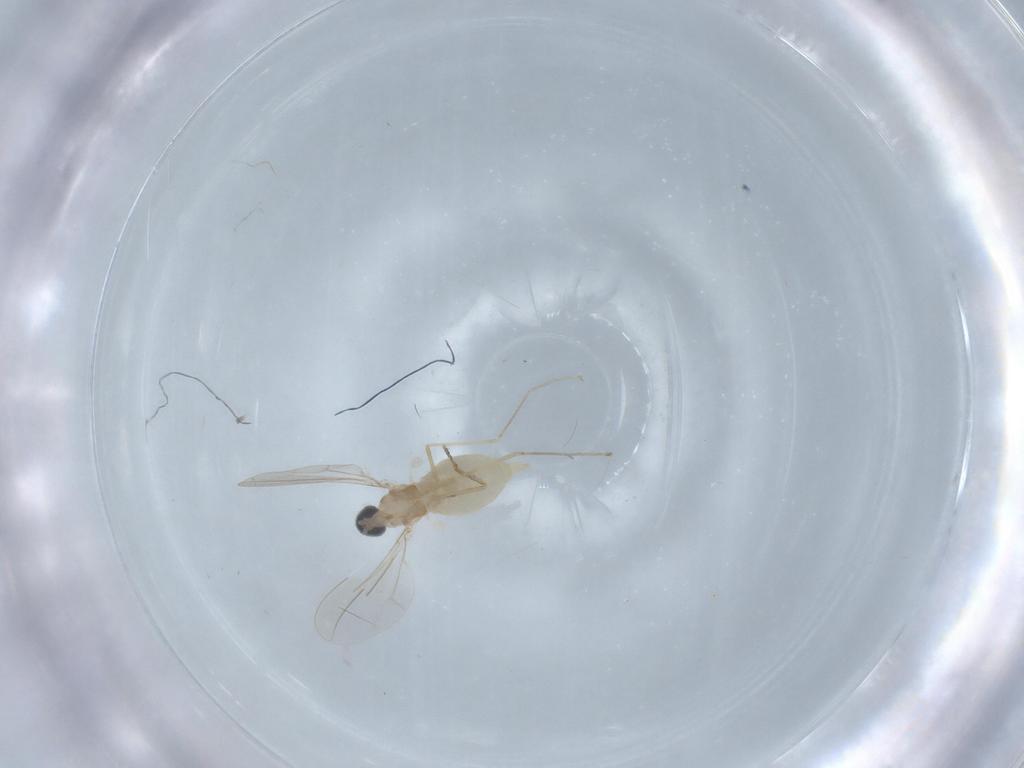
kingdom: Animalia
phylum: Arthropoda
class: Insecta
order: Diptera
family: Cecidomyiidae
